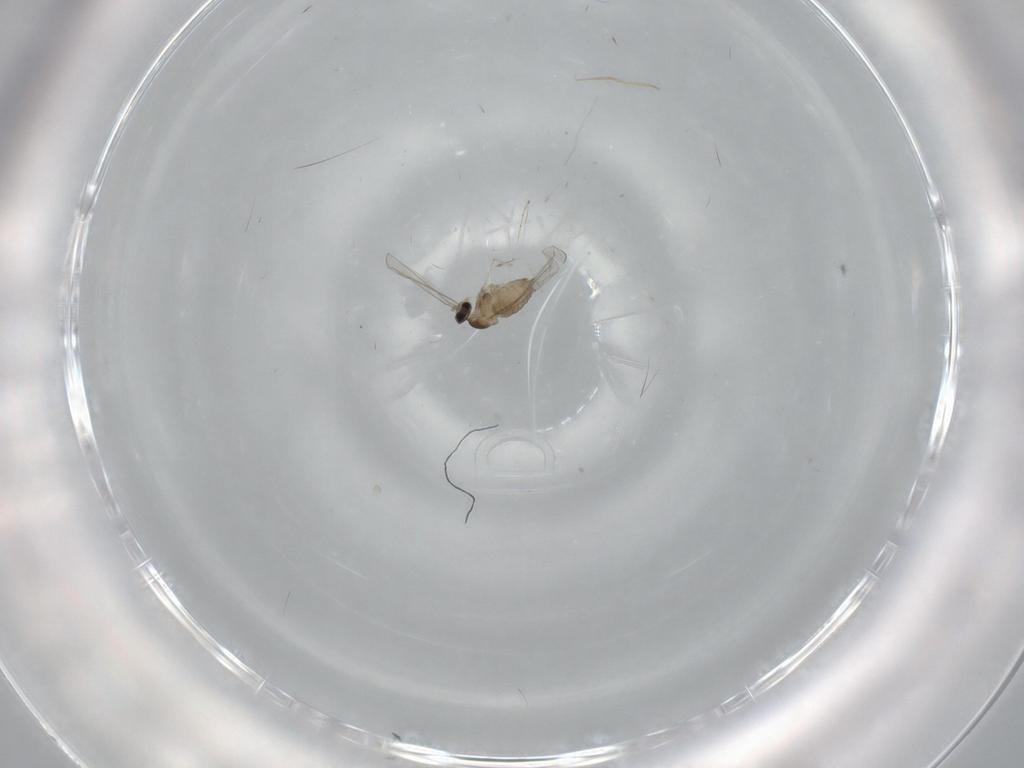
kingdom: Animalia
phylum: Arthropoda
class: Insecta
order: Diptera
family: Cecidomyiidae
